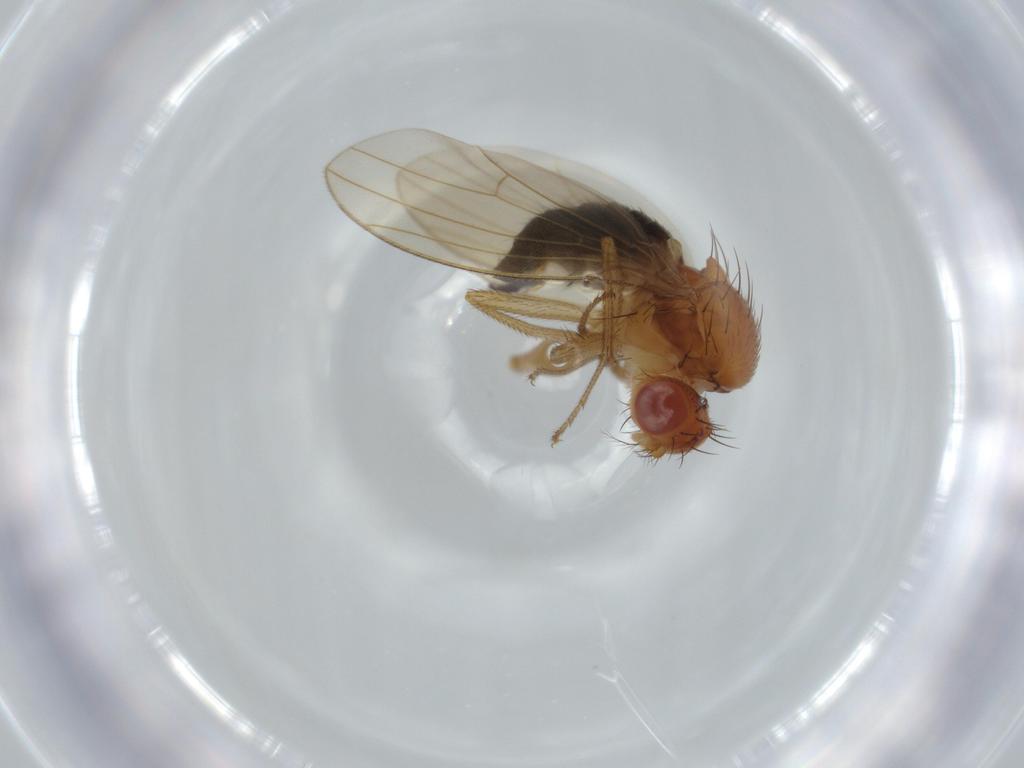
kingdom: Animalia
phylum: Arthropoda
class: Insecta
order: Diptera
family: Drosophilidae
